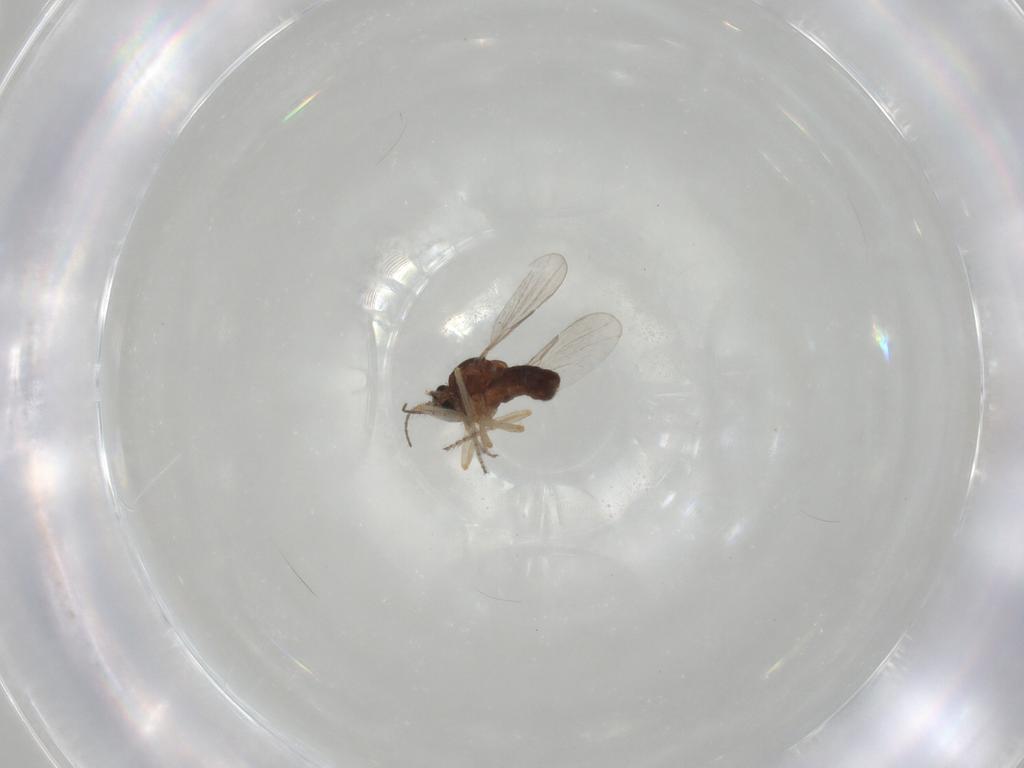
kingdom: Animalia
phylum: Arthropoda
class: Insecta
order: Diptera
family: Ceratopogonidae
